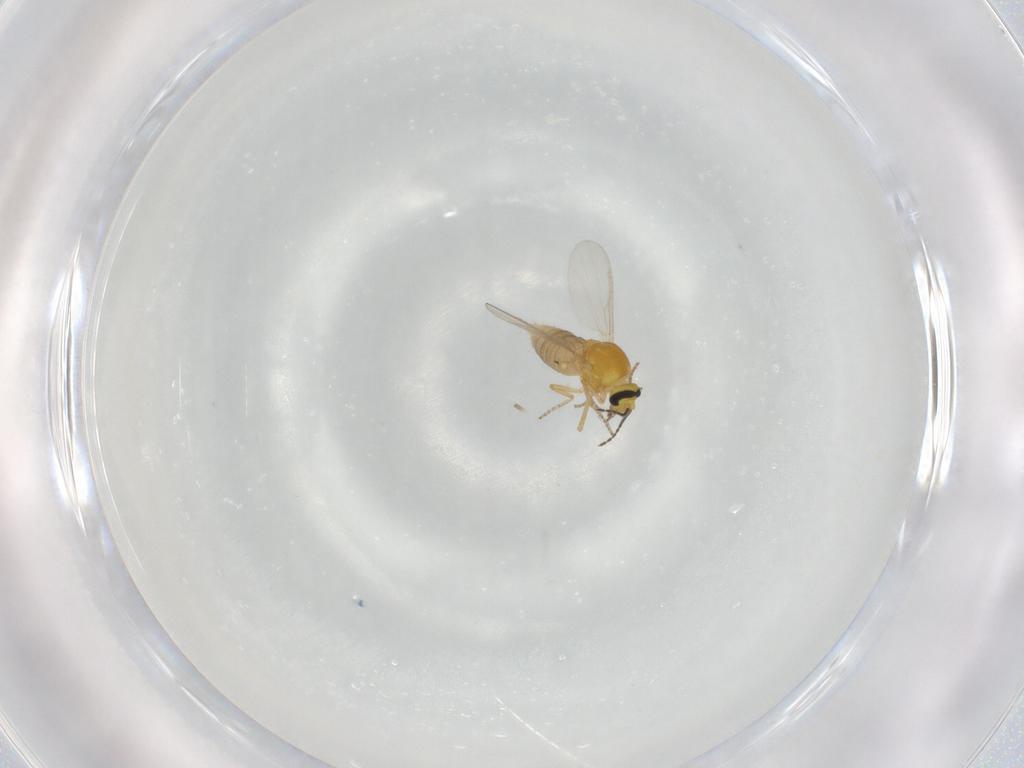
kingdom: Animalia
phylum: Arthropoda
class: Insecta
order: Diptera
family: Ceratopogonidae
